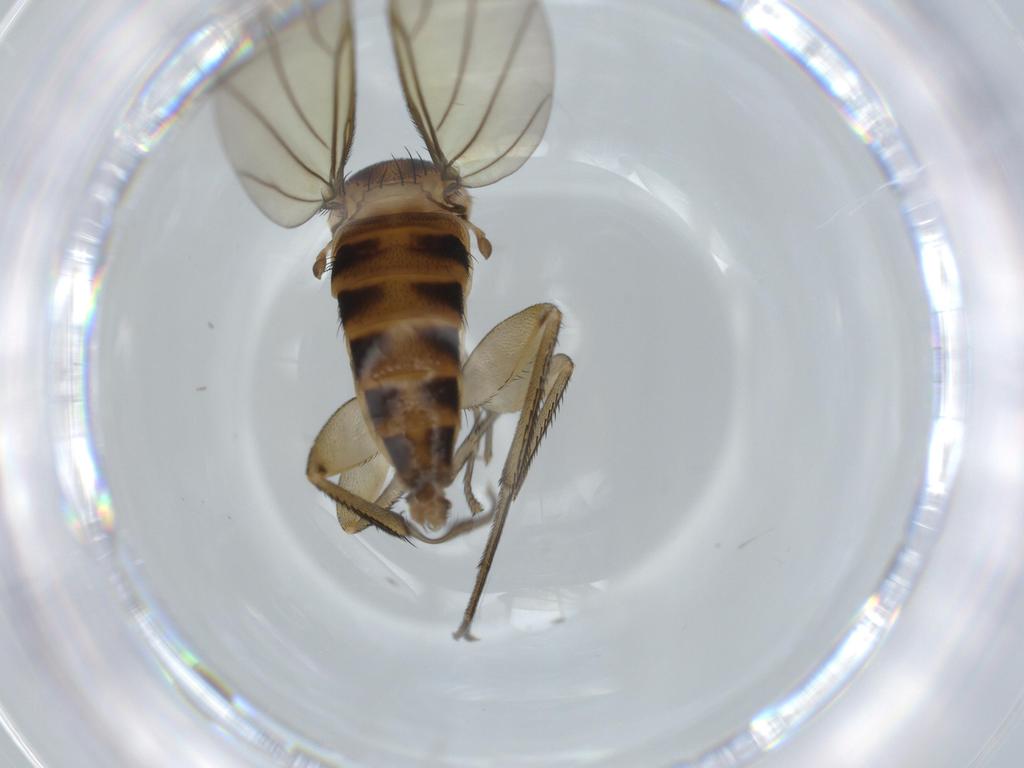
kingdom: Animalia
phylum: Arthropoda
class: Insecta
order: Diptera
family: Phoridae
